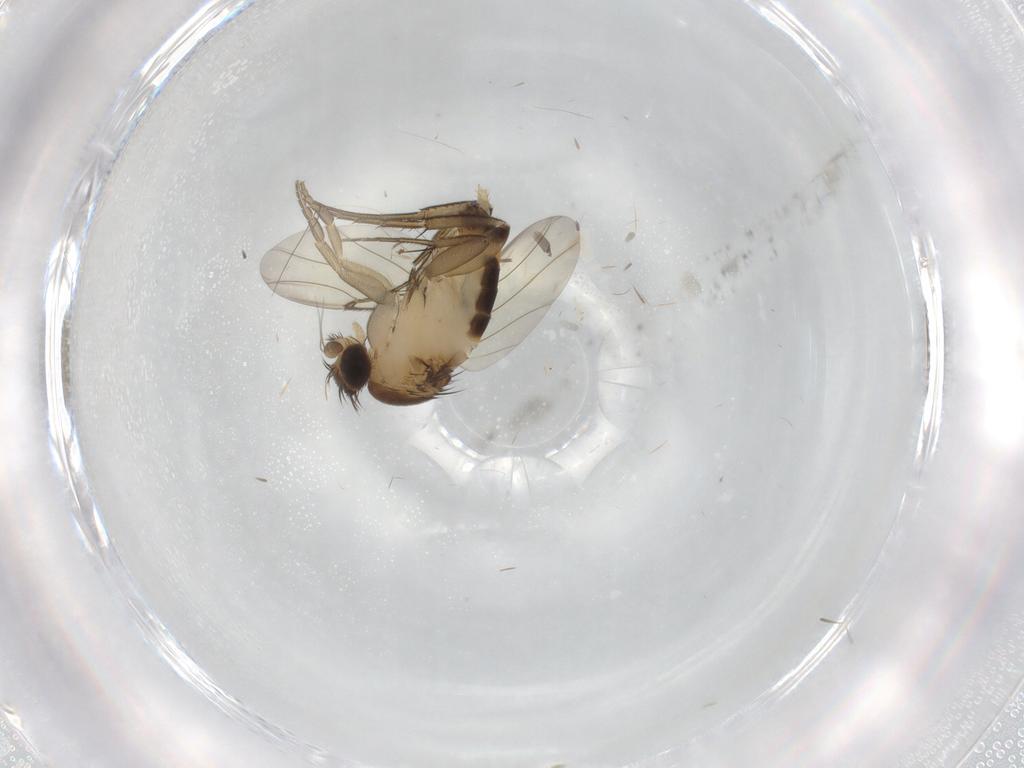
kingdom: Animalia
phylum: Arthropoda
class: Insecta
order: Diptera
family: Phoridae
